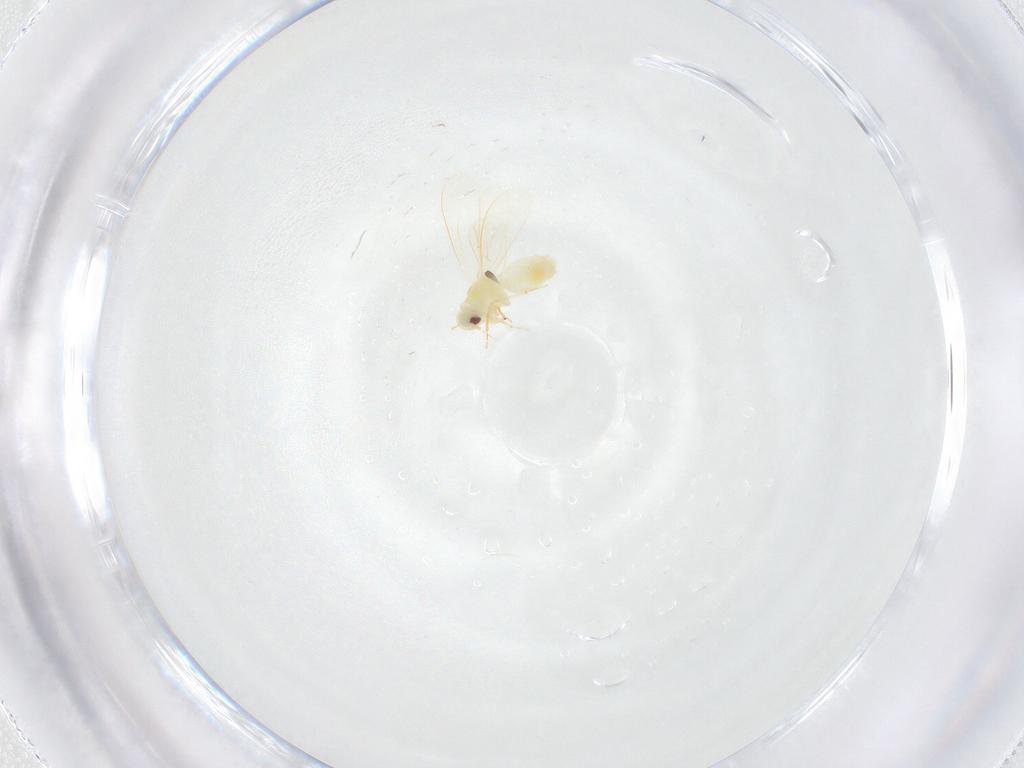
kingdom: Animalia
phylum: Arthropoda
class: Insecta
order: Hemiptera
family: Aleyrodidae
